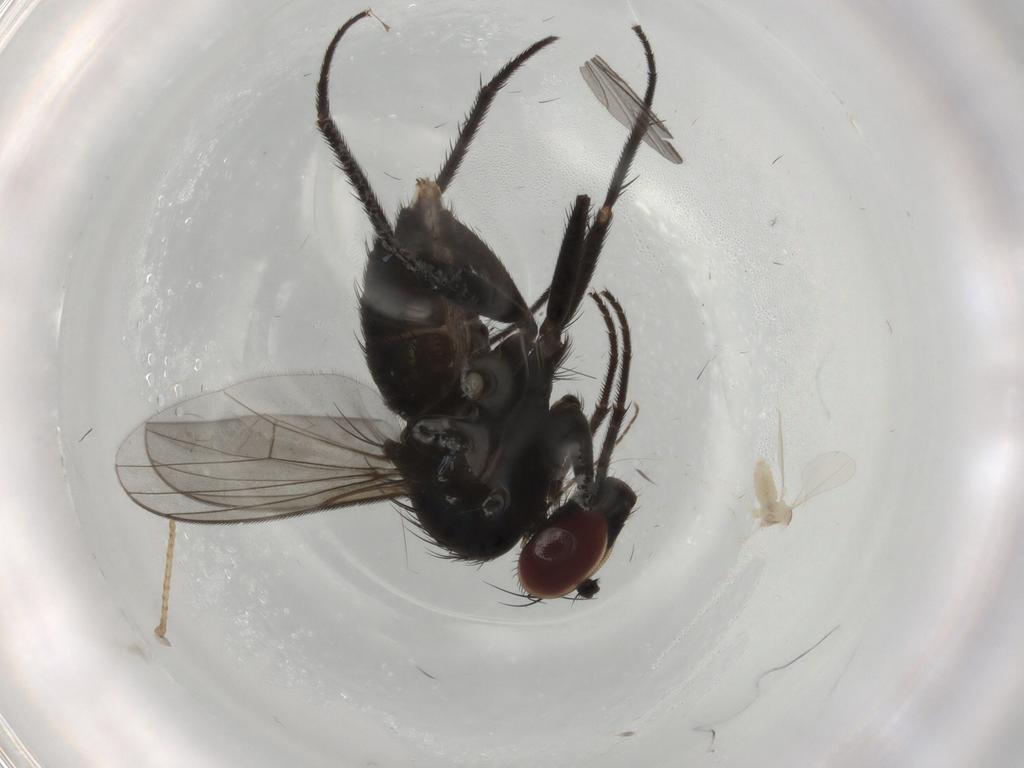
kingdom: Animalia
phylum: Arthropoda
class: Insecta
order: Diptera
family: Dolichopodidae
